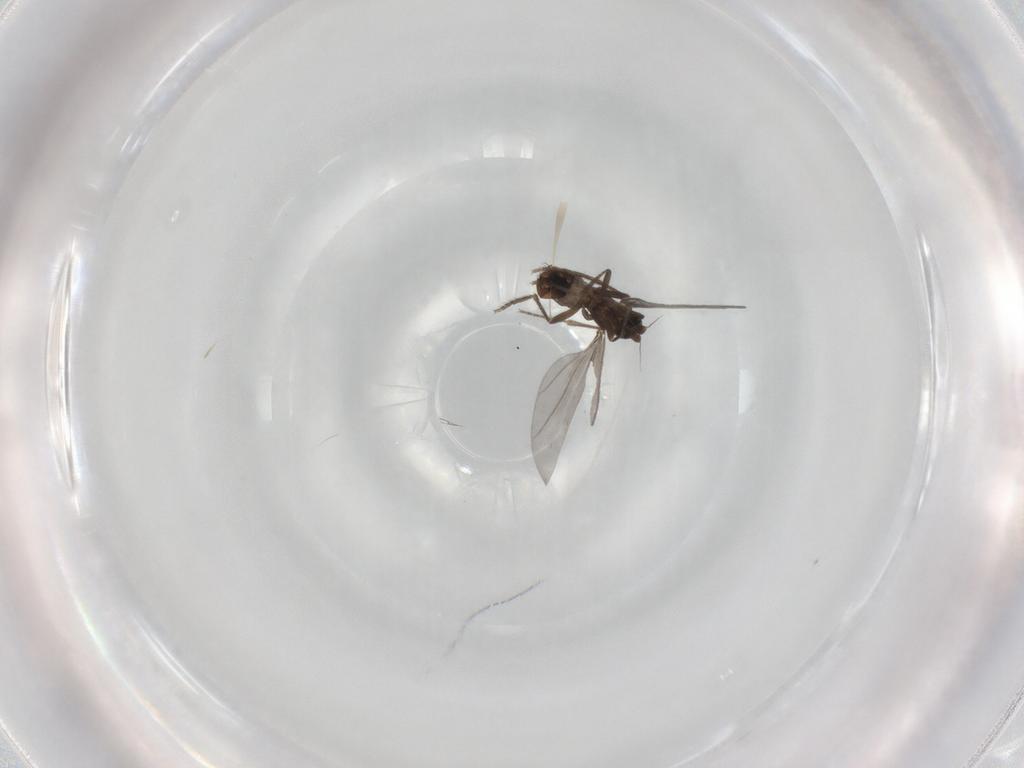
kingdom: Animalia
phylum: Arthropoda
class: Insecta
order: Diptera
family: Phoridae
